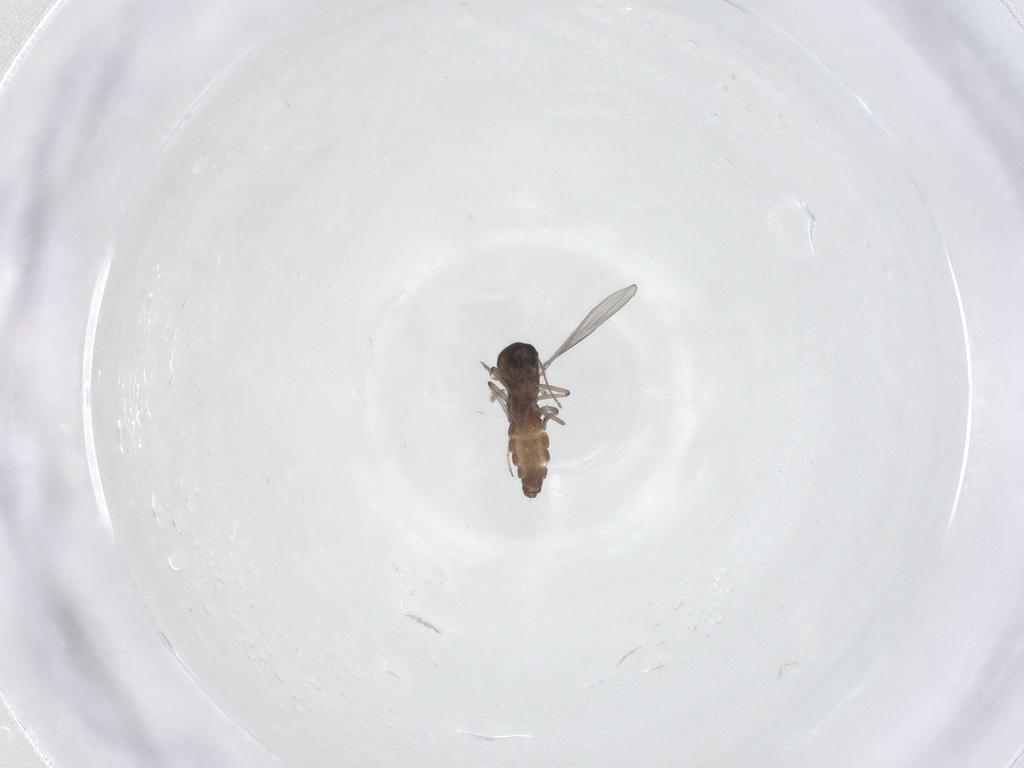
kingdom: Animalia
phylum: Arthropoda
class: Insecta
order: Diptera
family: Ceratopogonidae
